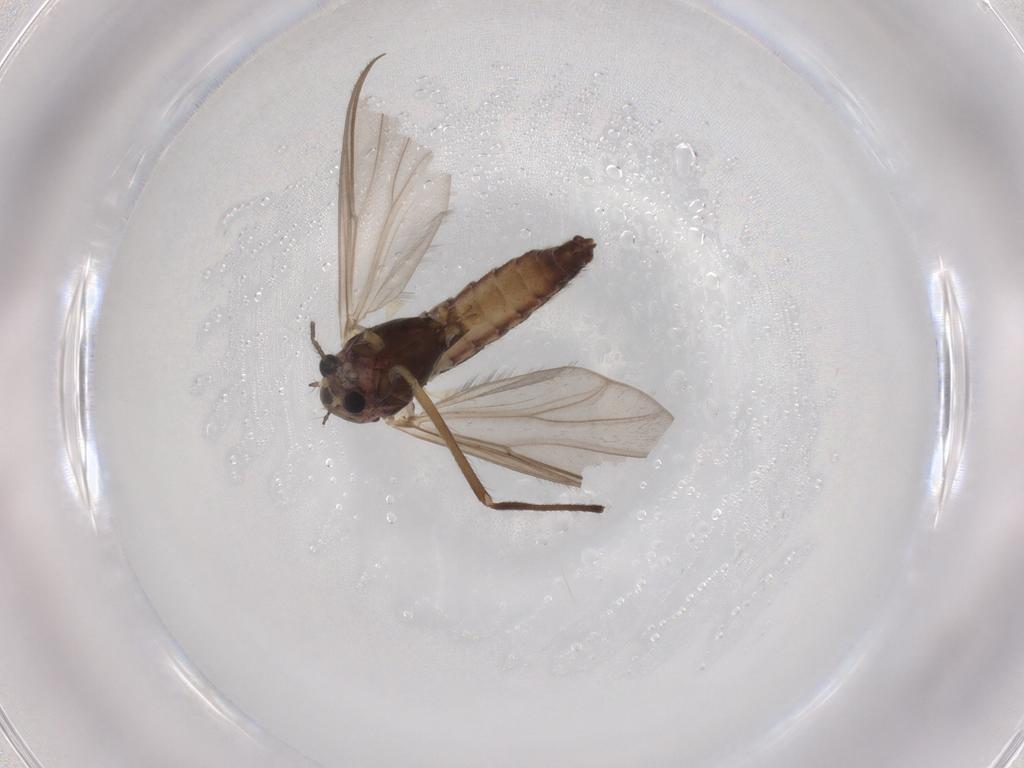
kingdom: Animalia
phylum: Arthropoda
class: Insecta
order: Diptera
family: Chironomidae
